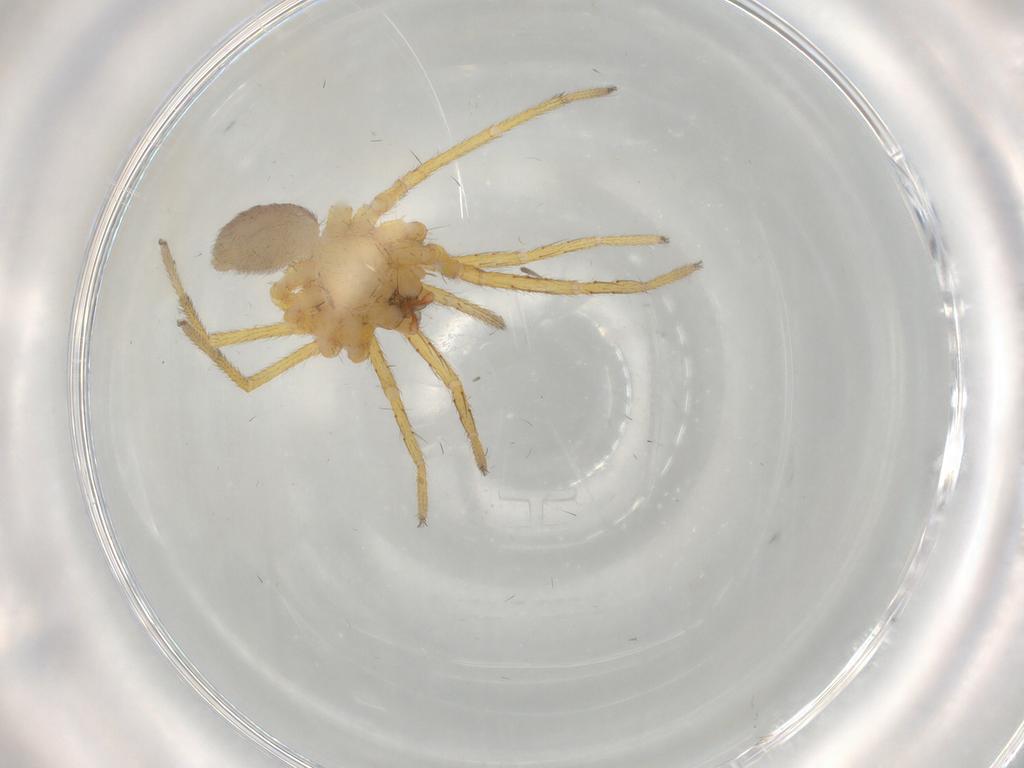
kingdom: Animalia
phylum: Arthropoda
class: Arachnida
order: Araneae
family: Corinnidae
